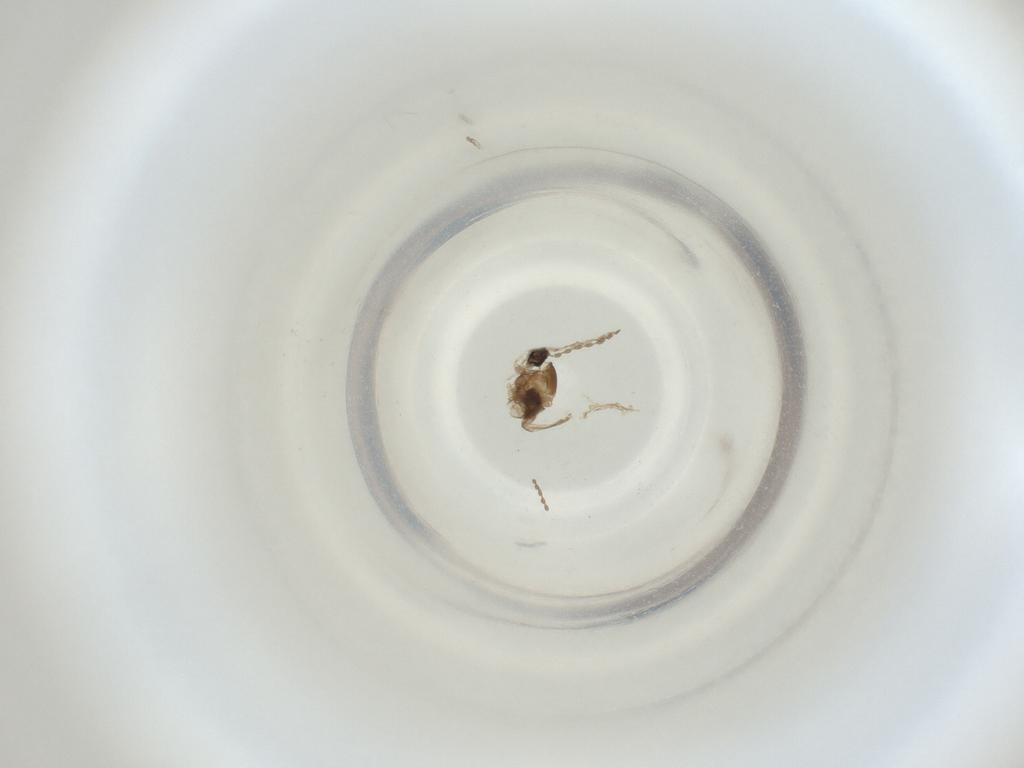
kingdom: Animalia
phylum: Arthropoda
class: Insecta
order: Diptera
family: Cecidomyiidae
